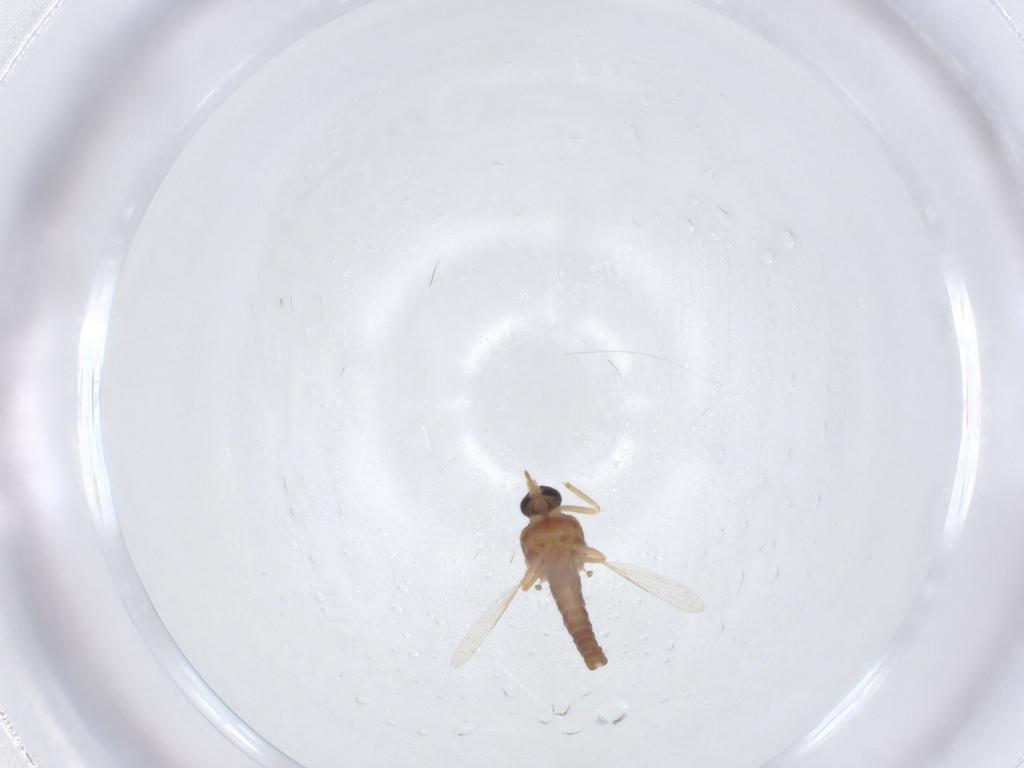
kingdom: Animalia
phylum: Arthropoda
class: Insecta
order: Diptera
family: Ceratopogonidae
